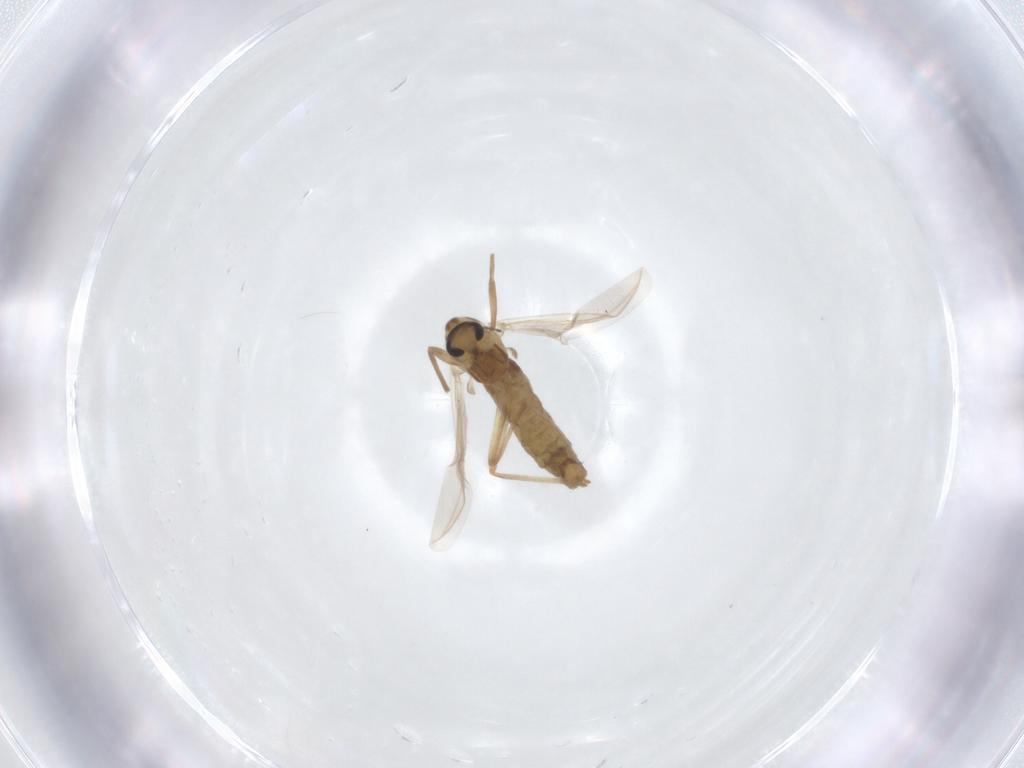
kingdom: Animalia
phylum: Arthropoda
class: Insecta
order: Diptera
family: Chironomidae
